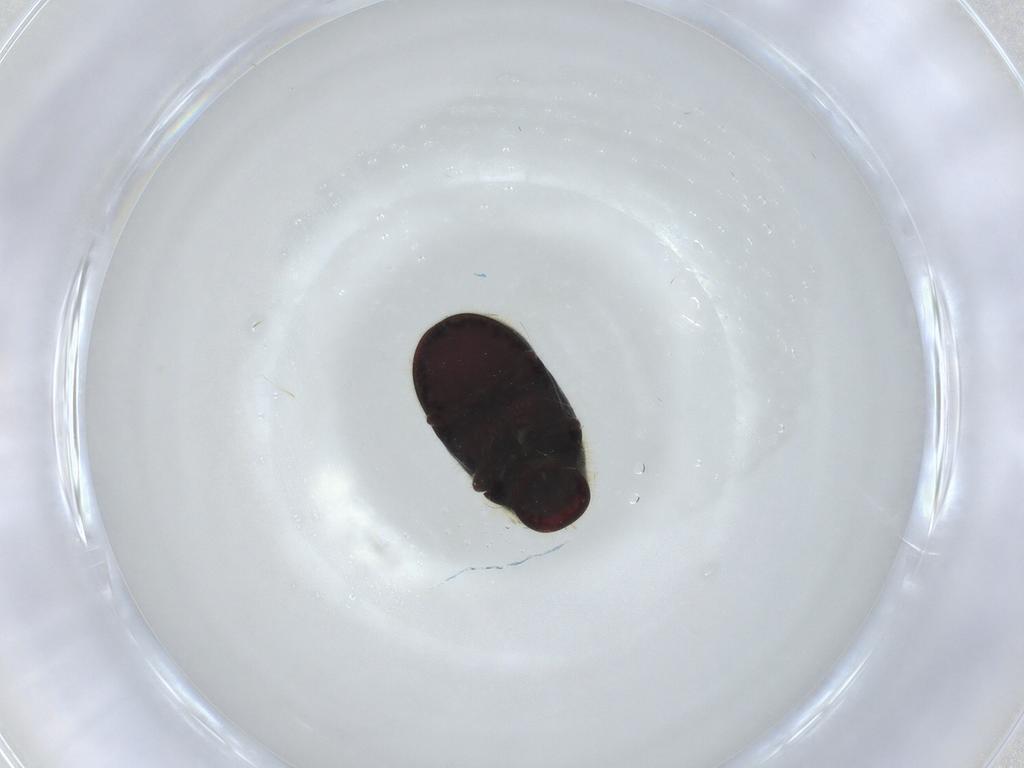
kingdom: Animalia
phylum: Arthropoda
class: Insecta
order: Coleoptera
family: Ptinidae
